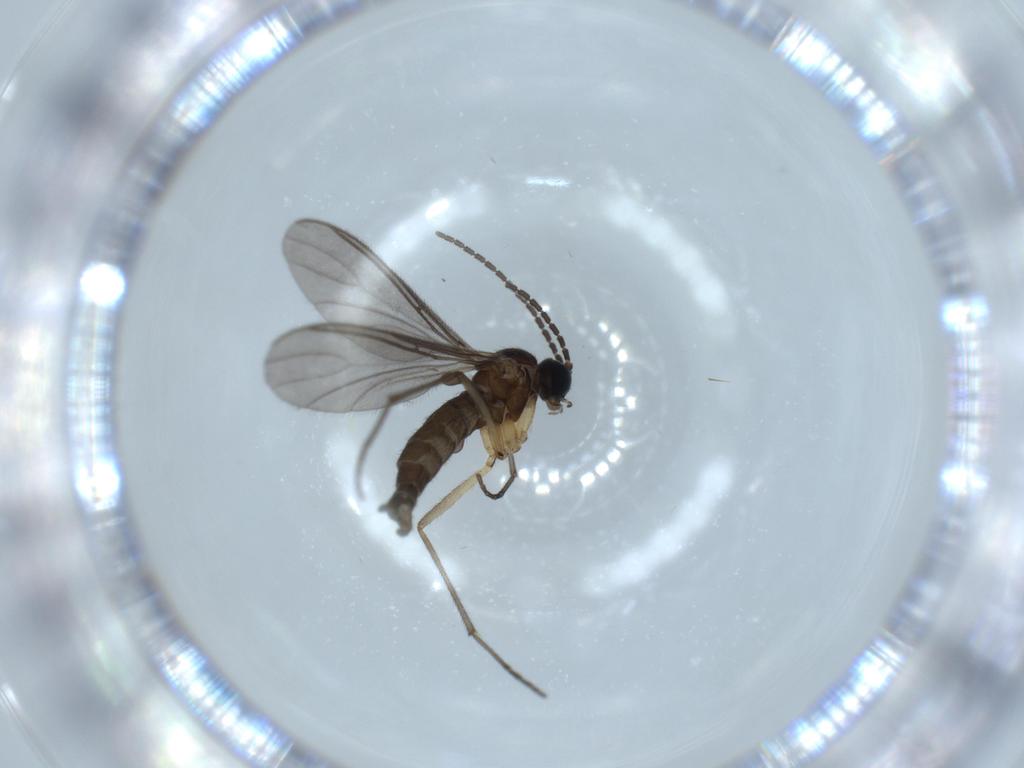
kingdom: Animalia
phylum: Arthropoda
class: Insecta
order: Diptera
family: Sciaridae
